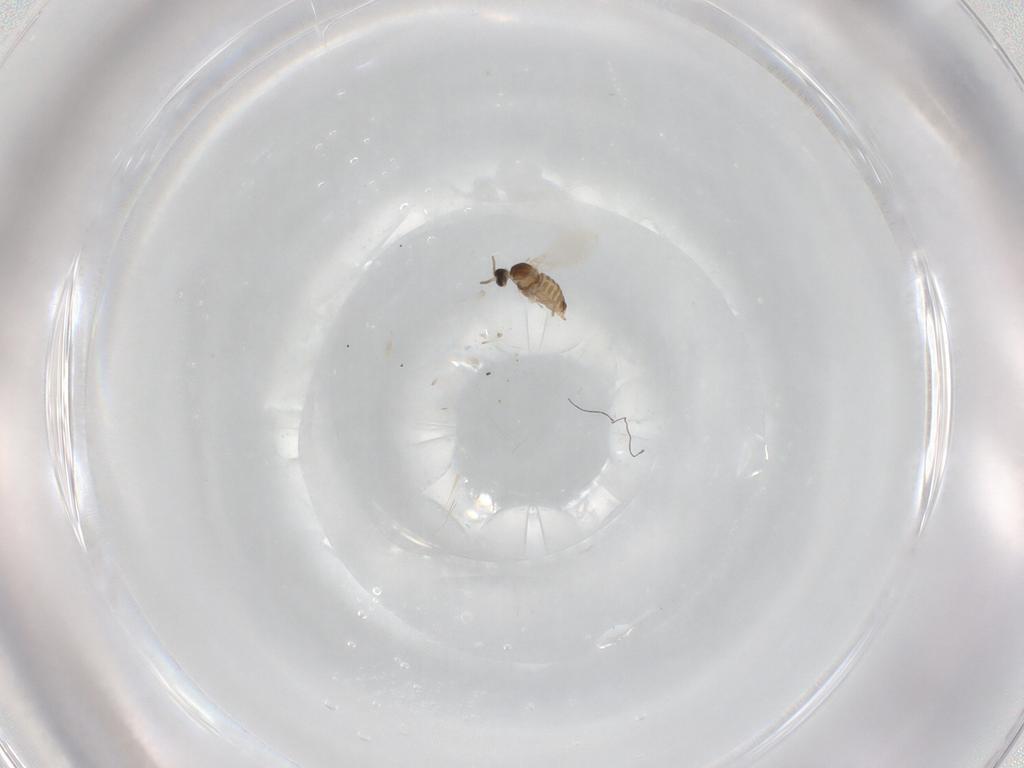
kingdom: Animalia
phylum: Arthropoda
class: Insecta
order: Diptera
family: Cecidomyiidae
